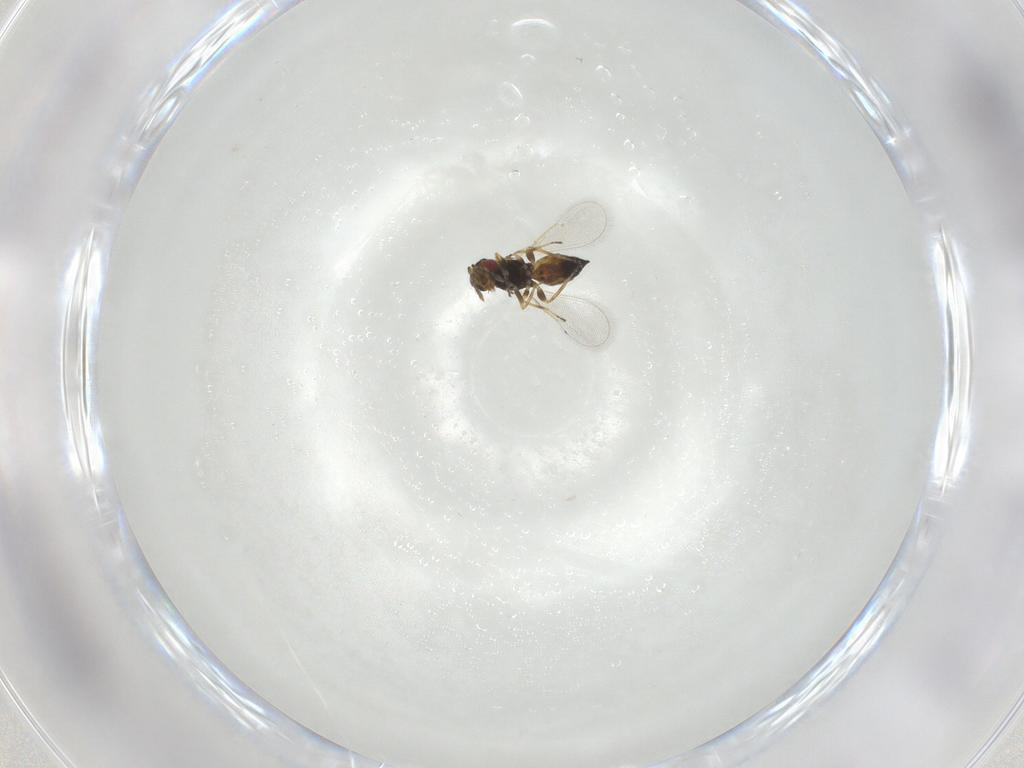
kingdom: Animalia
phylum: Arthropoda
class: Insecta
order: Hymenoptera
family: Eulophidae
